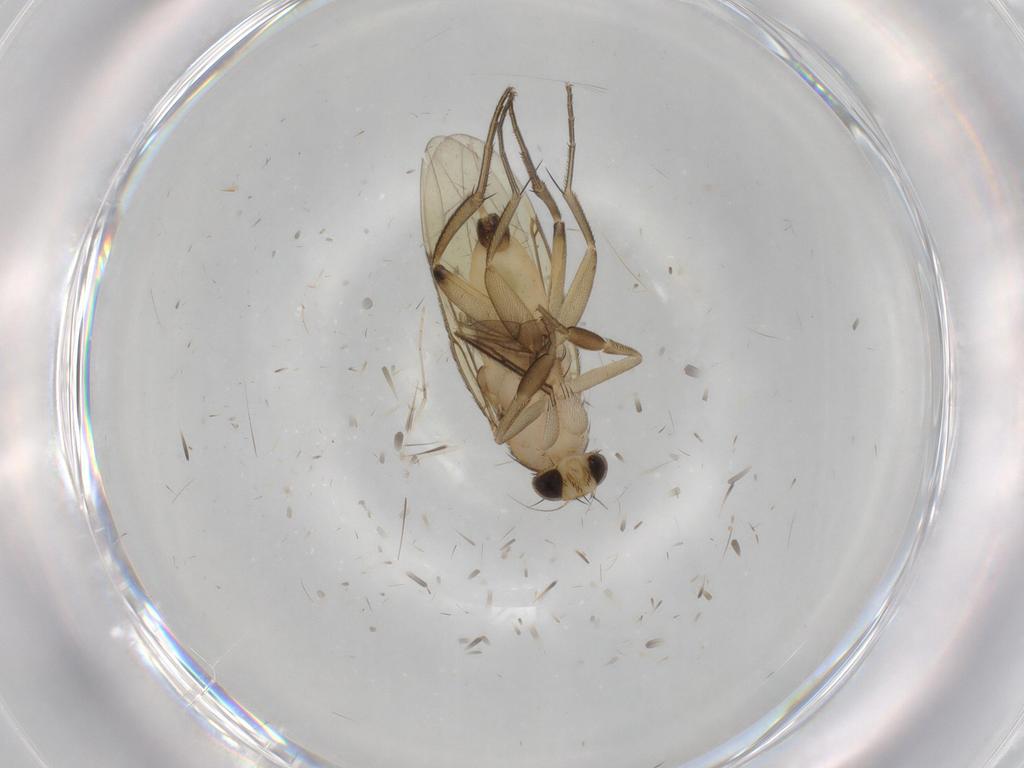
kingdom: Animalia
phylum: Arthropoda
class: Insecta
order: Diptera
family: Phoridae
